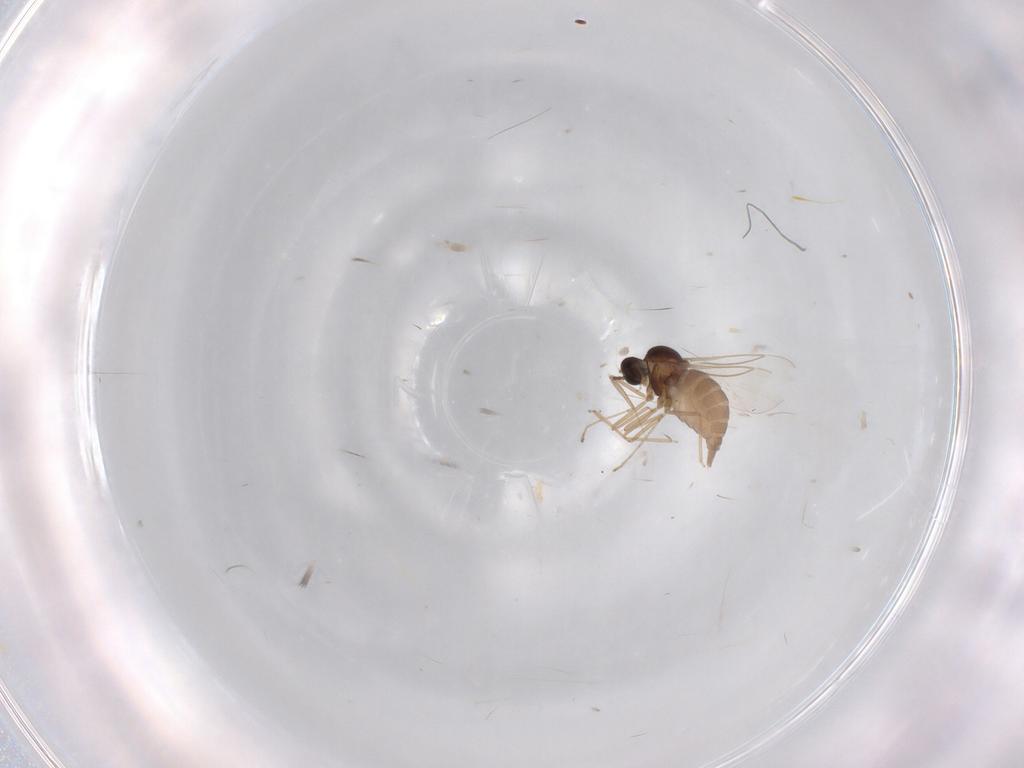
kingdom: Animalia
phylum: Arthropoda
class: Insecta
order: Diptera
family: Cecidomyiidae
